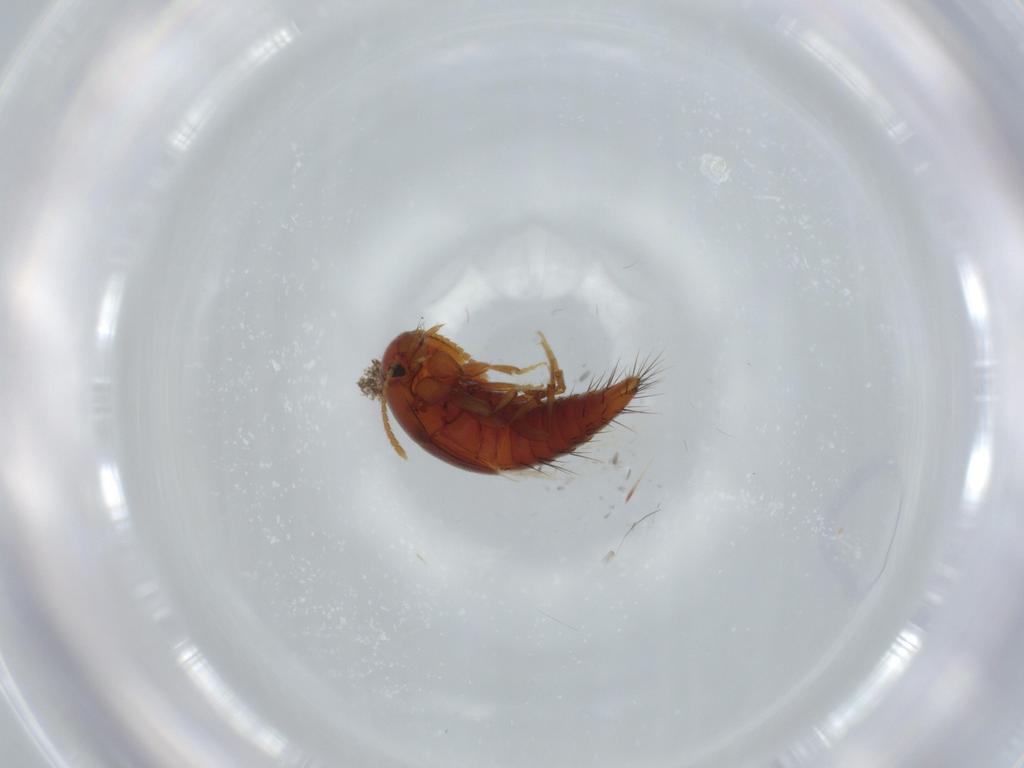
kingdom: Animalia
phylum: Arthropoda
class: Insecta
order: Coleoptera
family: Staphylinidae
